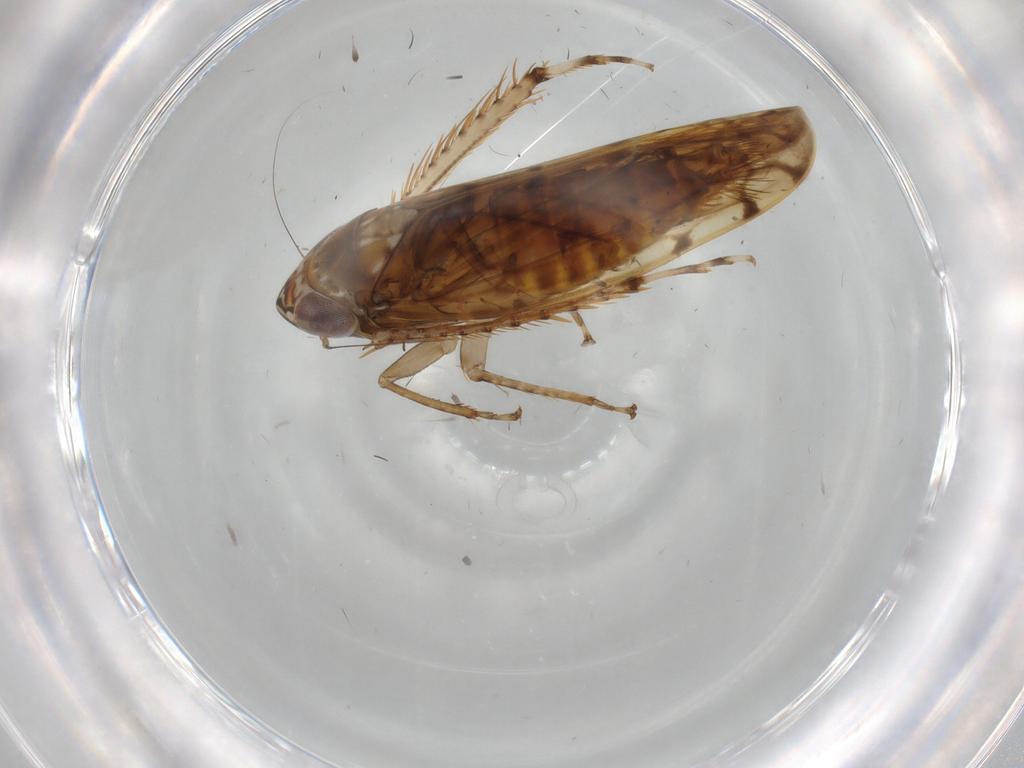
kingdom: Animalia
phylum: Arthropoda
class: Insecta
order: Hemiptera
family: Cicadellidae
